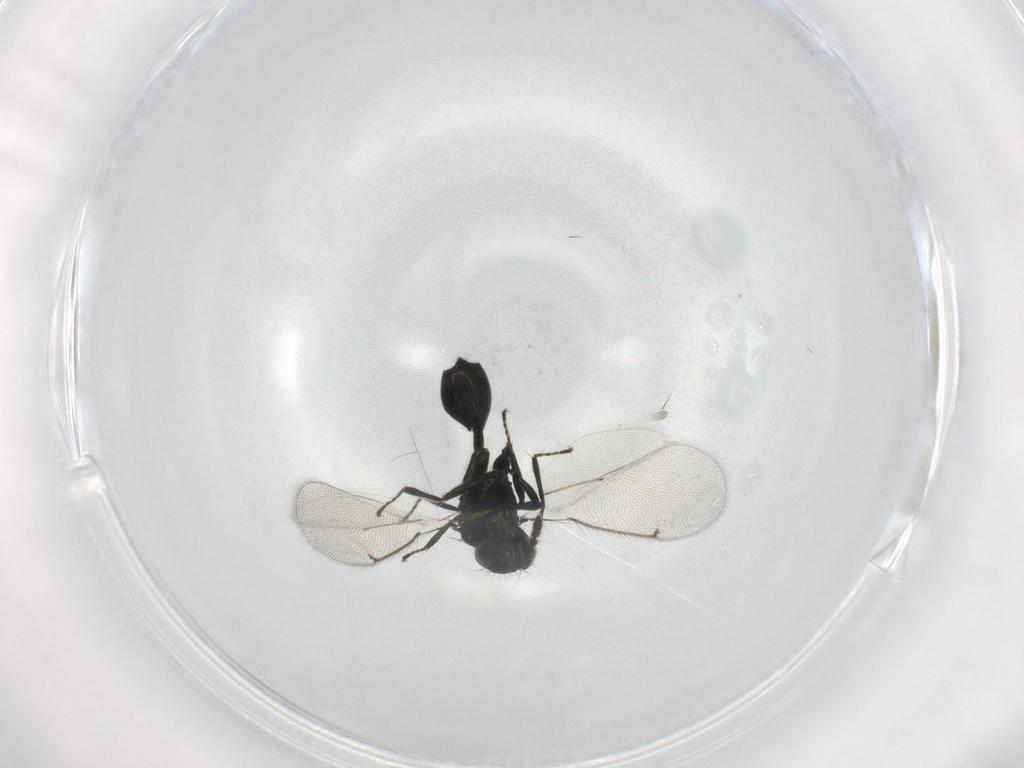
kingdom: Animalia
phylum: Arthropoda
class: Insecta
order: Hymenoptera
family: Eulophidae
